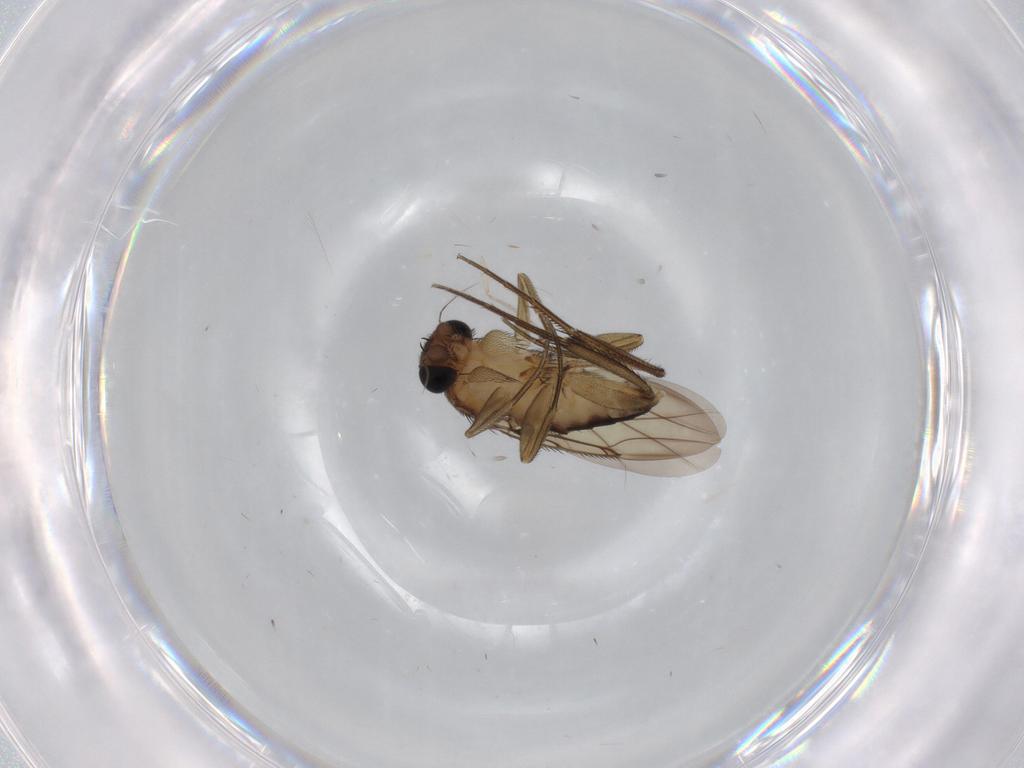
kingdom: Animalia
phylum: Arthropoda
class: Insecta
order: Diptera
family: Phoridae
